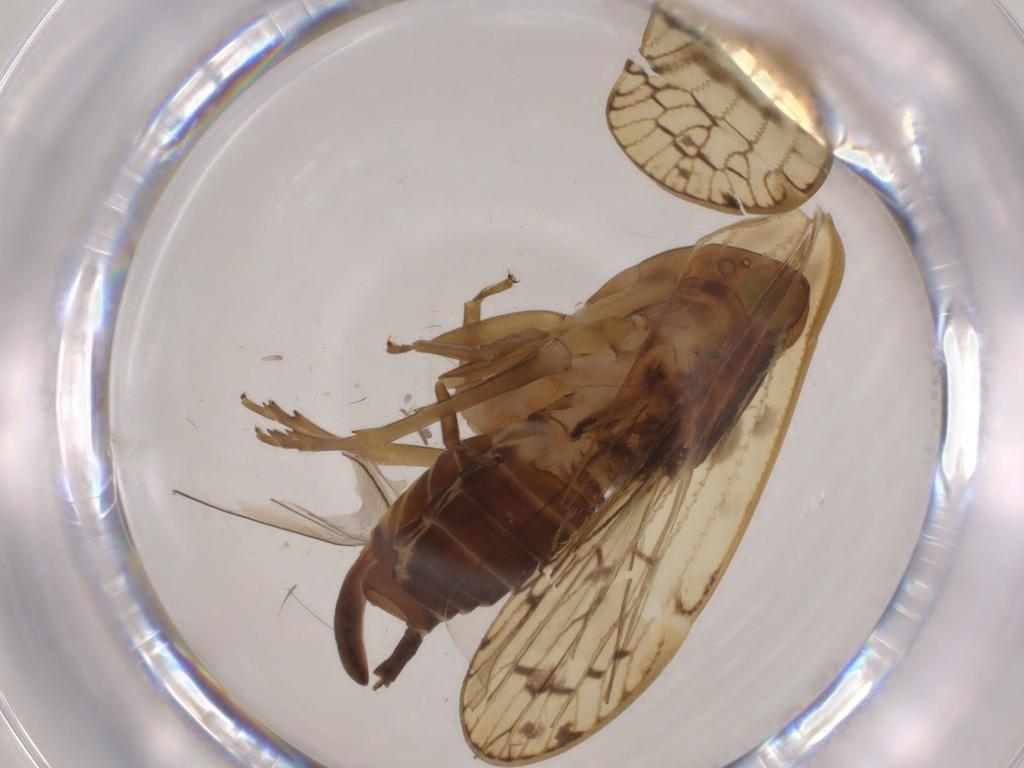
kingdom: Animalia
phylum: Arthropoda
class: Insecta
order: Hemiptera
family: Cixiidae
